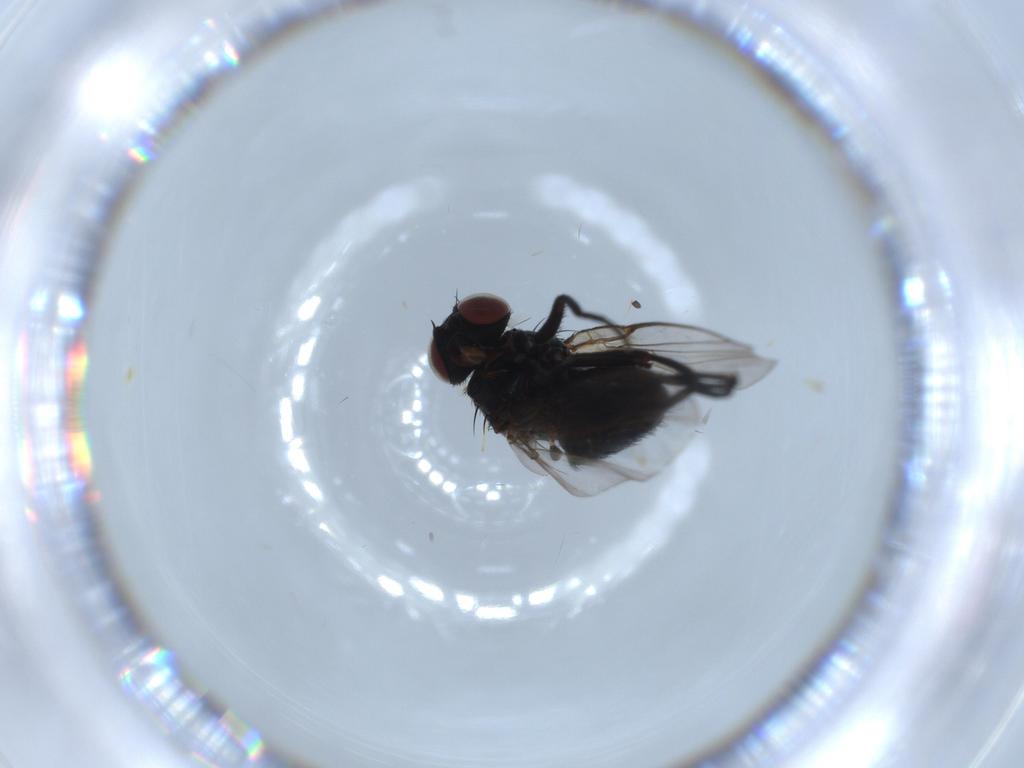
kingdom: Animalia
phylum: Arthropoda
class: Insecta
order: Diptera
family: Agromyzidae
